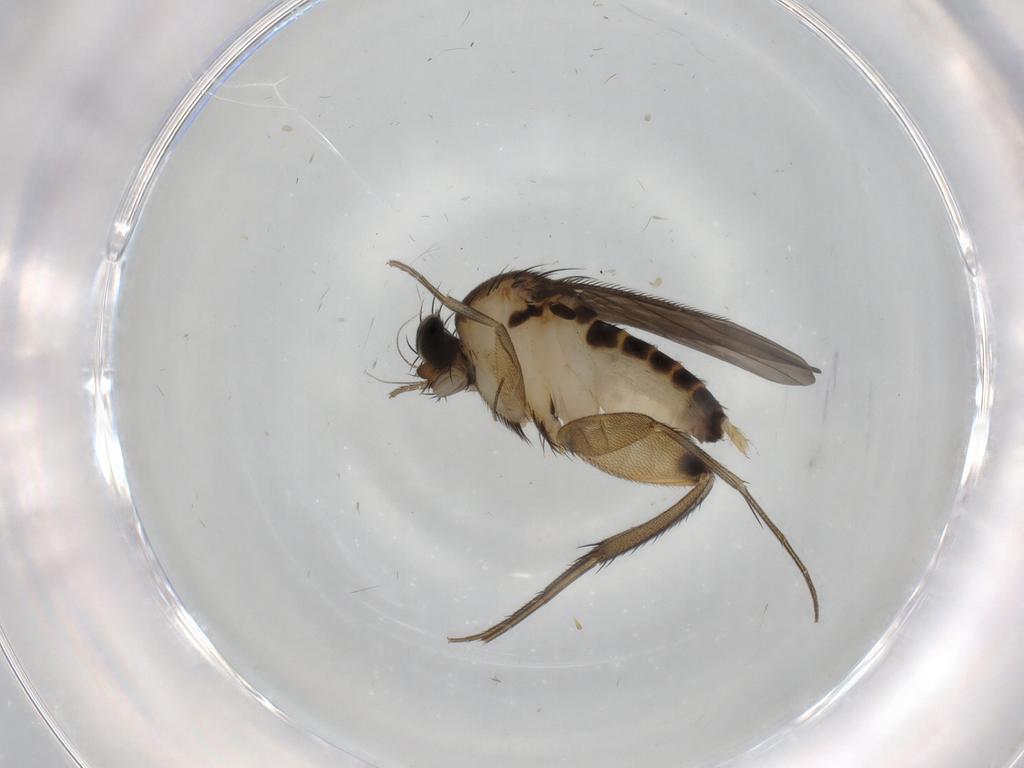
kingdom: Animalia
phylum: Arthropoda
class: Insecta
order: Diptera
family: Phoridae
